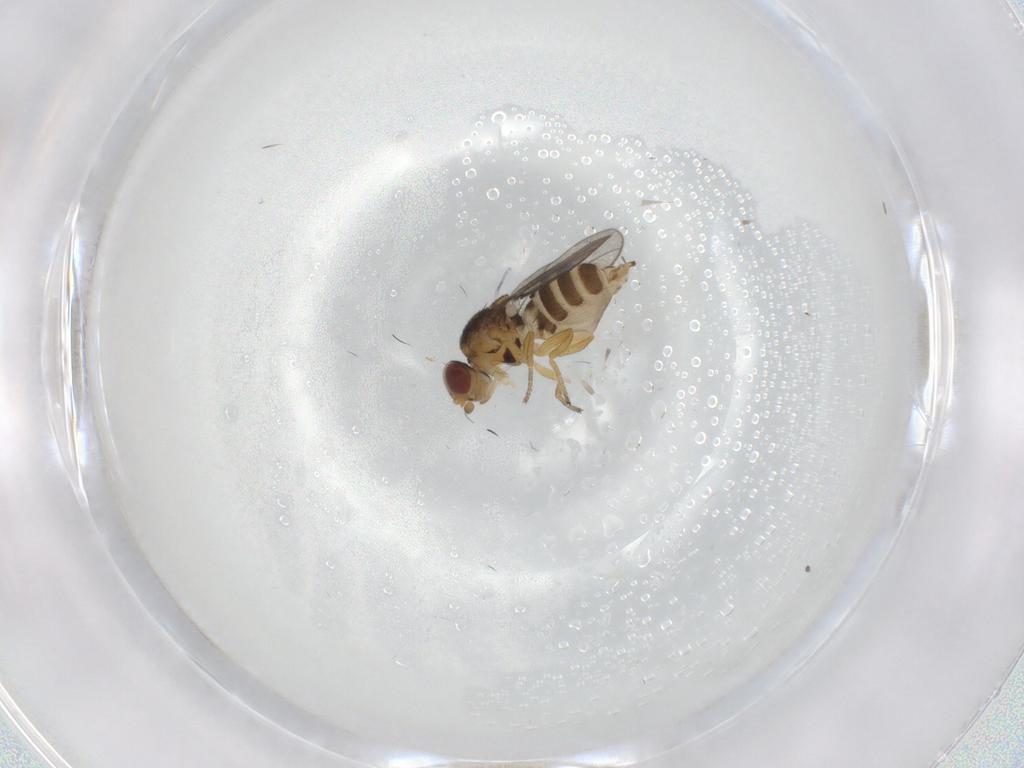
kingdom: Animalia
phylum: Arthropoda
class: Insecta
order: Diptera
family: Chloropidae
